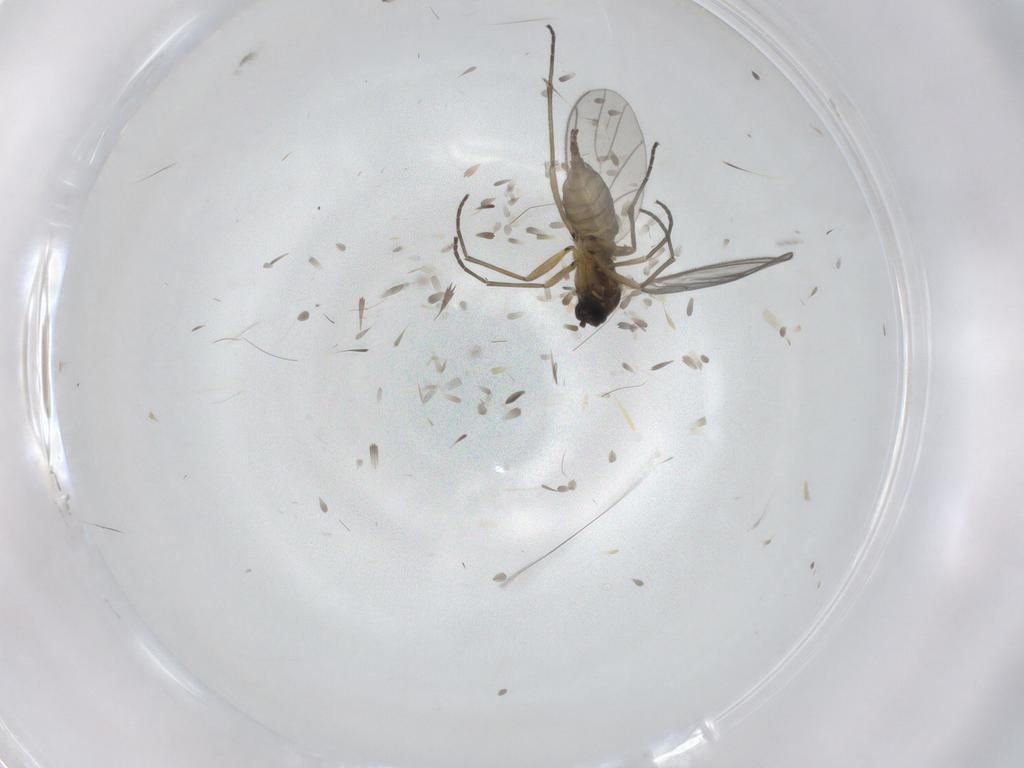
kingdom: Animalia
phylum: Arthropoda
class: Insecta
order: Diptera
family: Sciaridae
